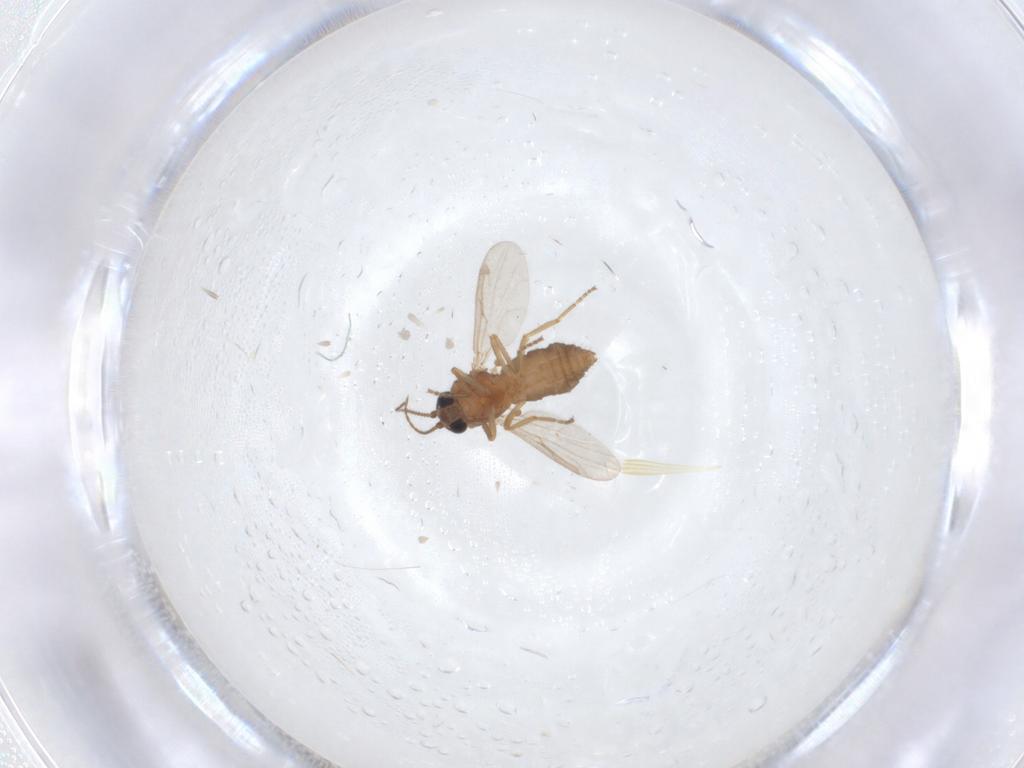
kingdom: Animalia
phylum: Arthropoda
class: Insecta
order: Diptera
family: Ceratopogonidae
